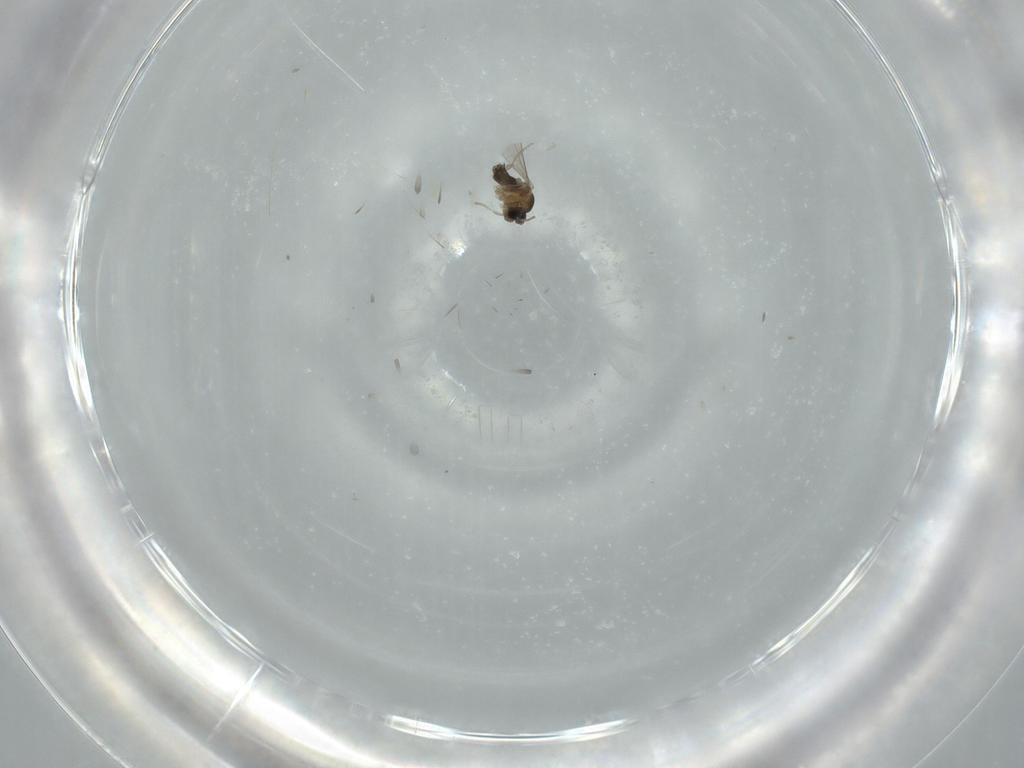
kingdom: Animalia
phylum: Arthropoda
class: Insecta
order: Diptera
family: Cecidomyiidae
